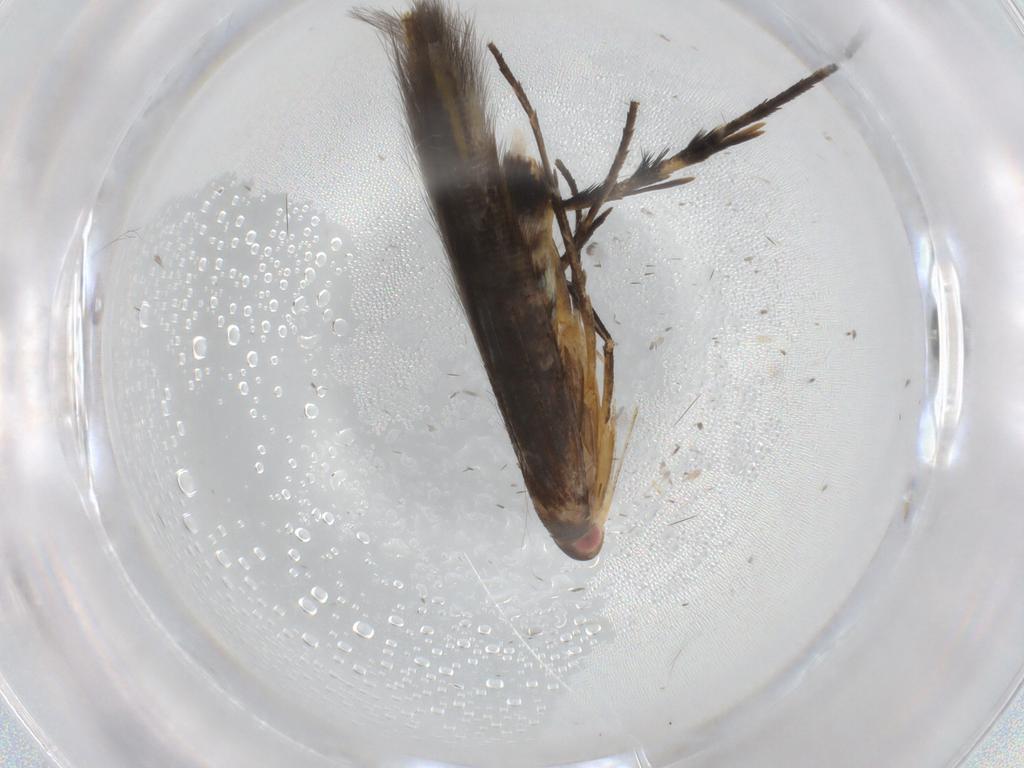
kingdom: Animalia
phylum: Arthropoda
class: Insecta
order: Lepidoptera
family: Cosmopterigidae
